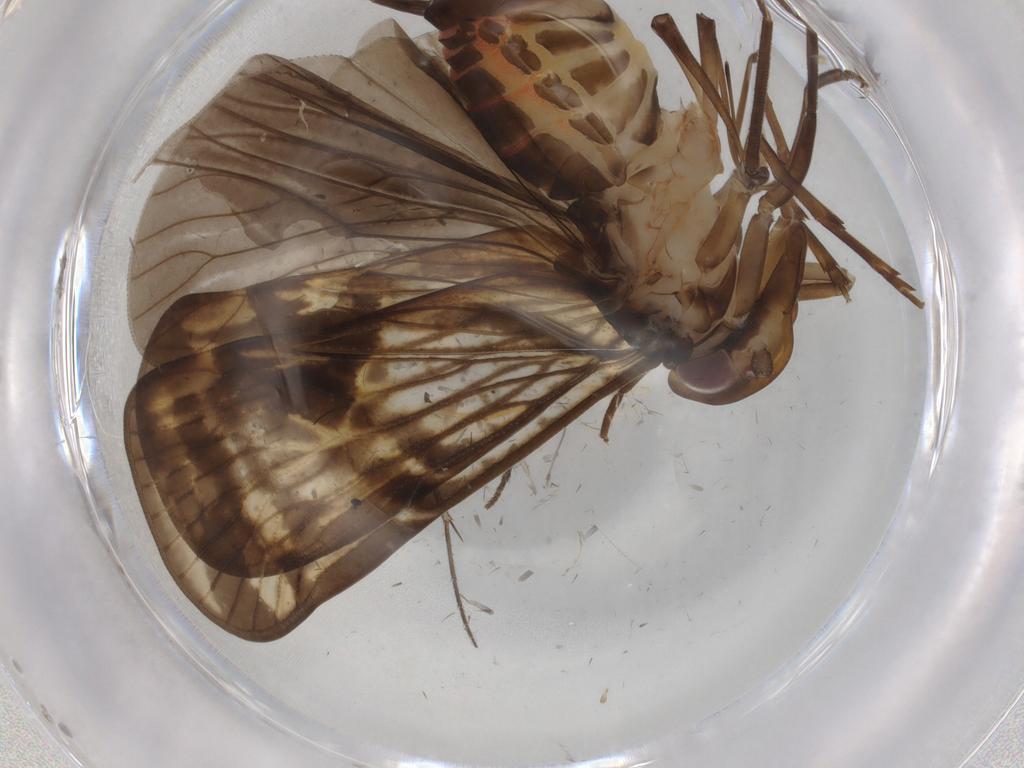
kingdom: Animalia
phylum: Arthropoda
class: Insecta
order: Hemiptera
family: Cixiidae
